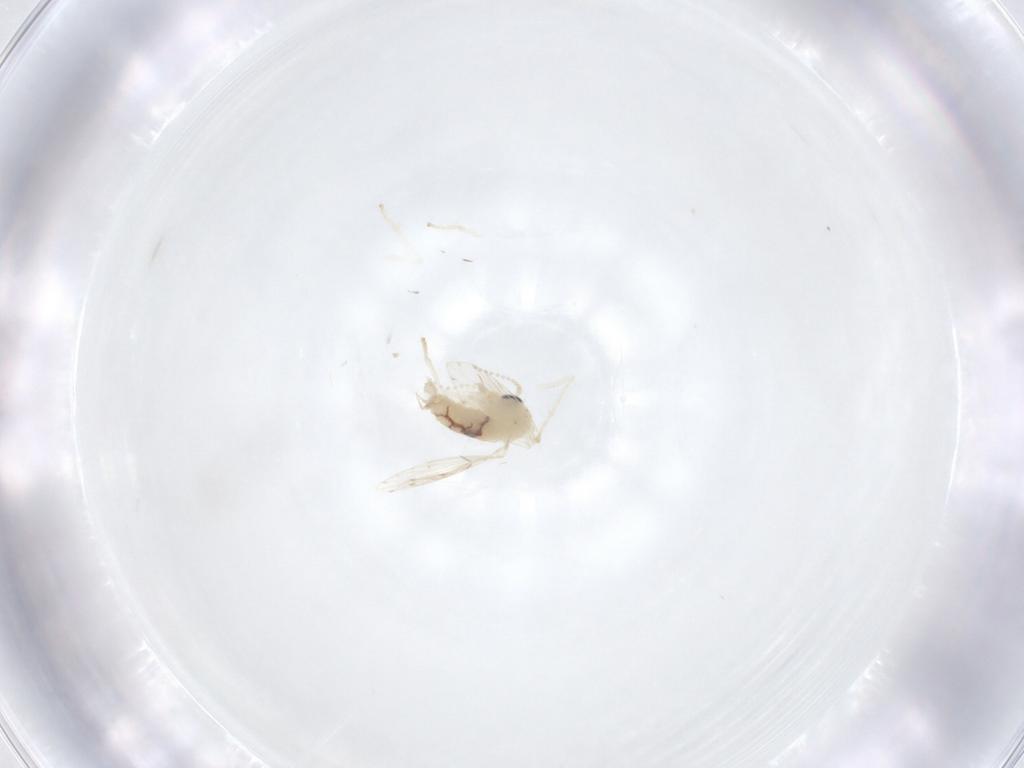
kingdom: Animalia
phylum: Arthropoda
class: Insecta
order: Diptera
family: Psychodidae
